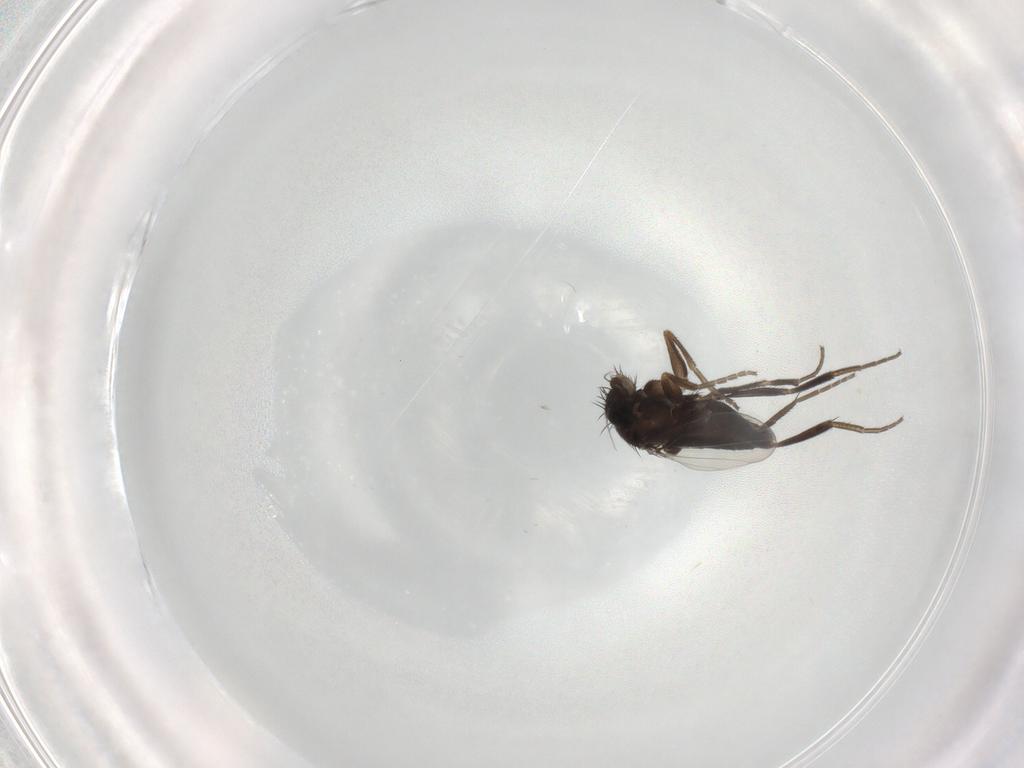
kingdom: Animalia
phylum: Arthropoda
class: Insecta
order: Diptera
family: Phoridae
